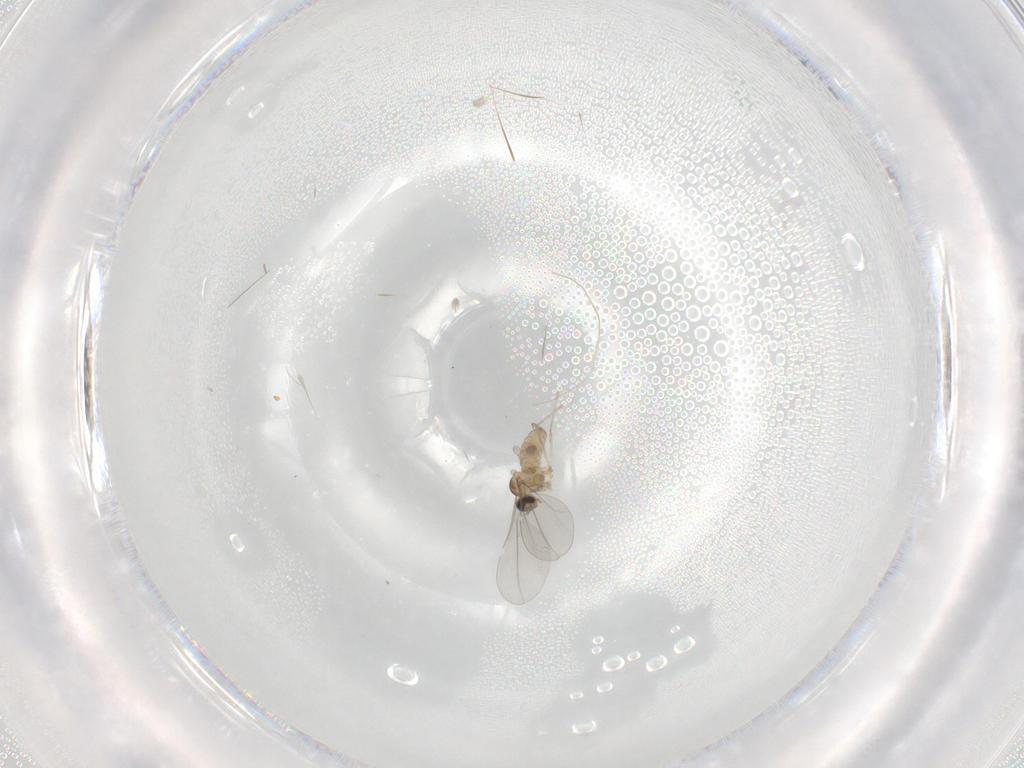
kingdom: Animalia
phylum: Arthropoda
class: Insecta
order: Diptera
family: Cecidomyiidae
